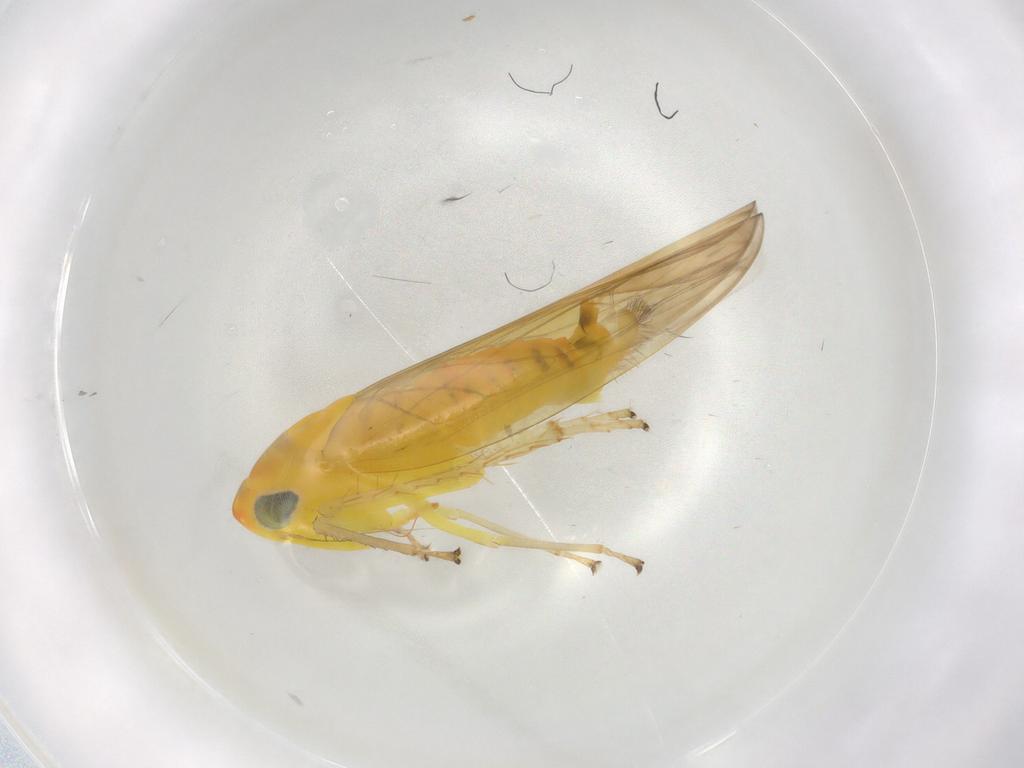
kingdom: Animalia
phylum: Arthropoda
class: Insecta
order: Hemiptera
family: Cicadellidae
